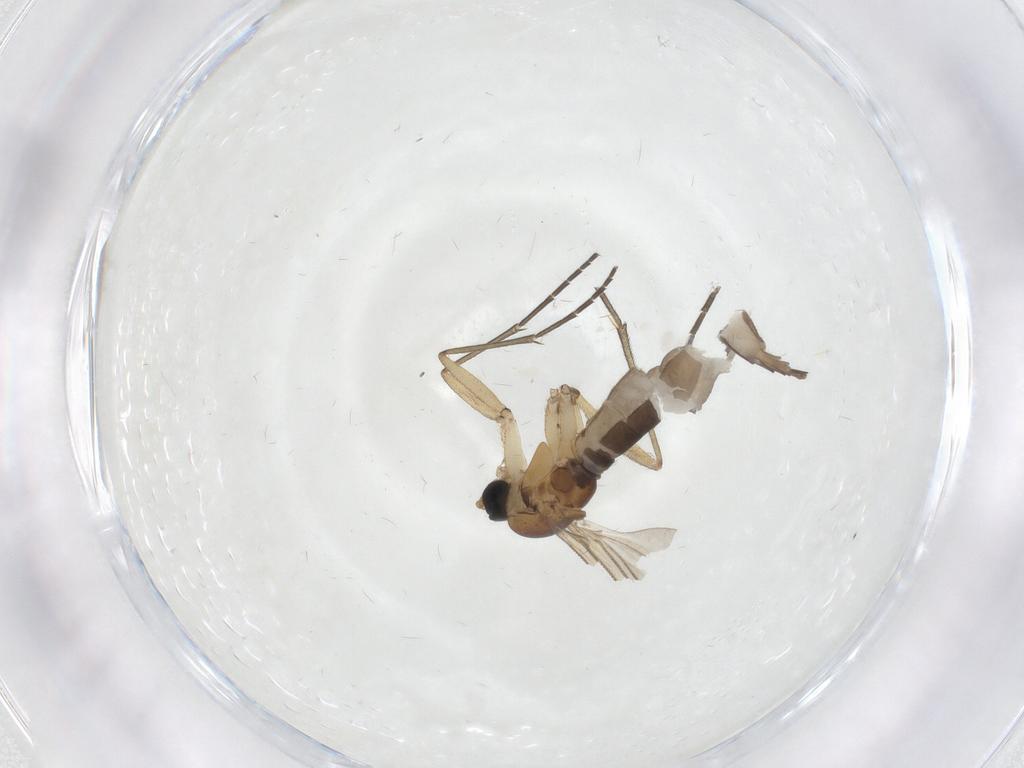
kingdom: Animalia
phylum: Arthropoda
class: Insecta
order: Diptera
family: Sciaridae
